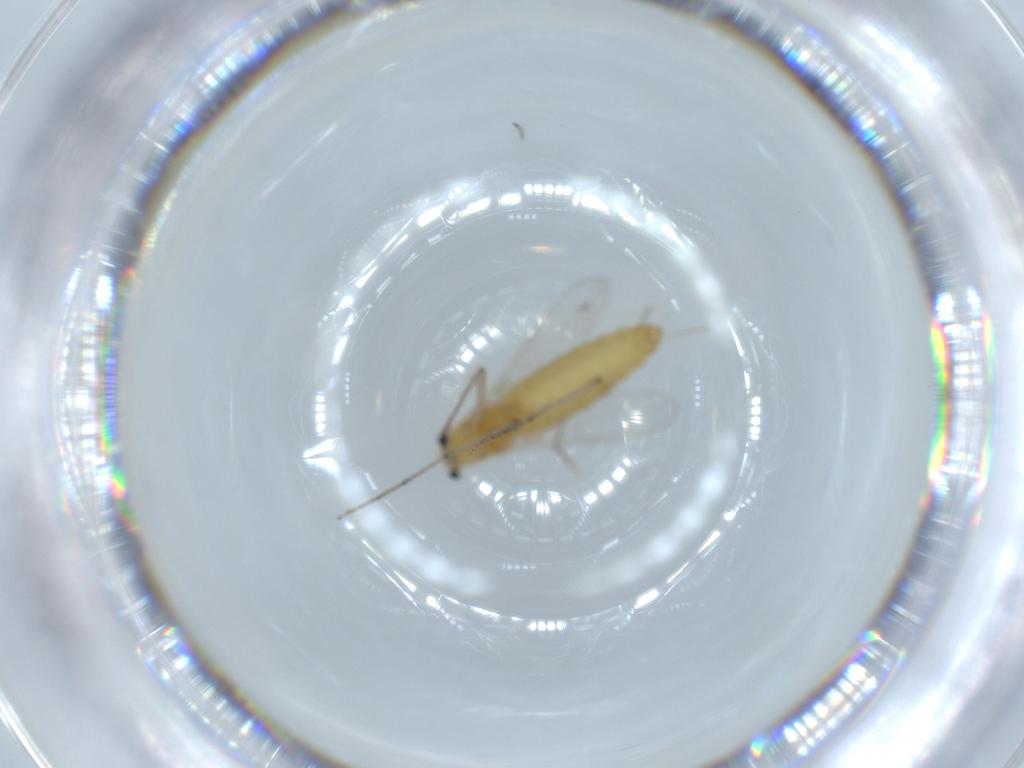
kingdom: Animalia
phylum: Arthropoda
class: Insecta
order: Diptera
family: Chironomidae
